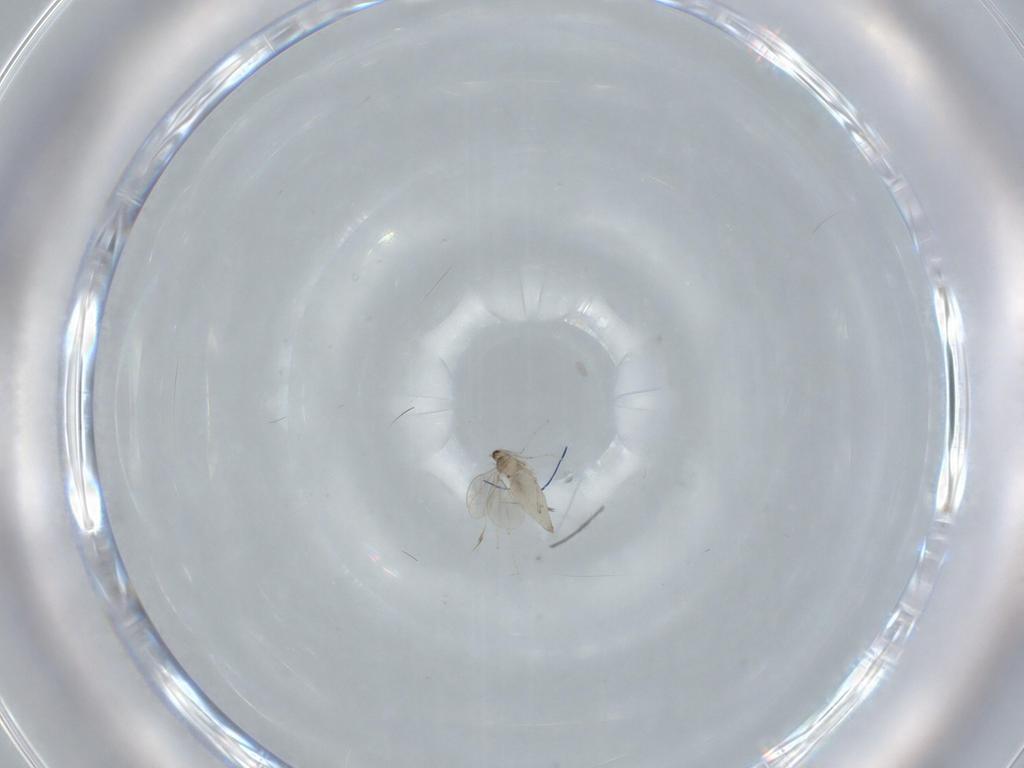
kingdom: Animalia
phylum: Arthropoda
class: Insecta
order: Diptera
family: Cecidomyiidae
